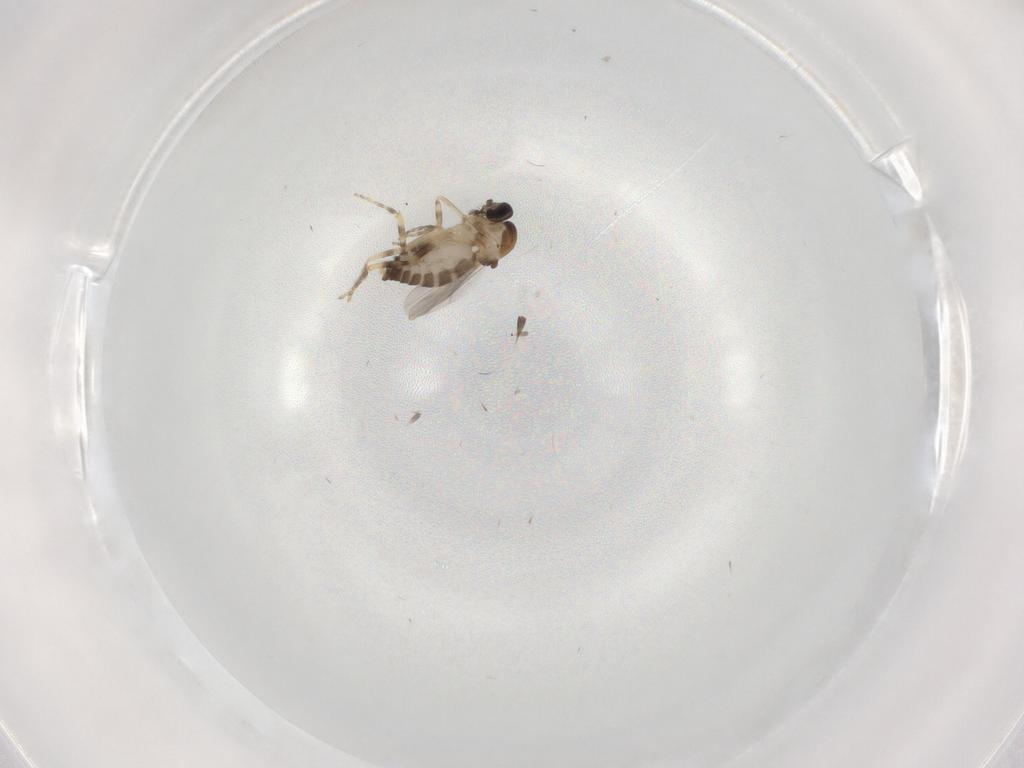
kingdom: Animalia
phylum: Arthropoda
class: Insecta
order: Diptera
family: Ceratopogonidae
